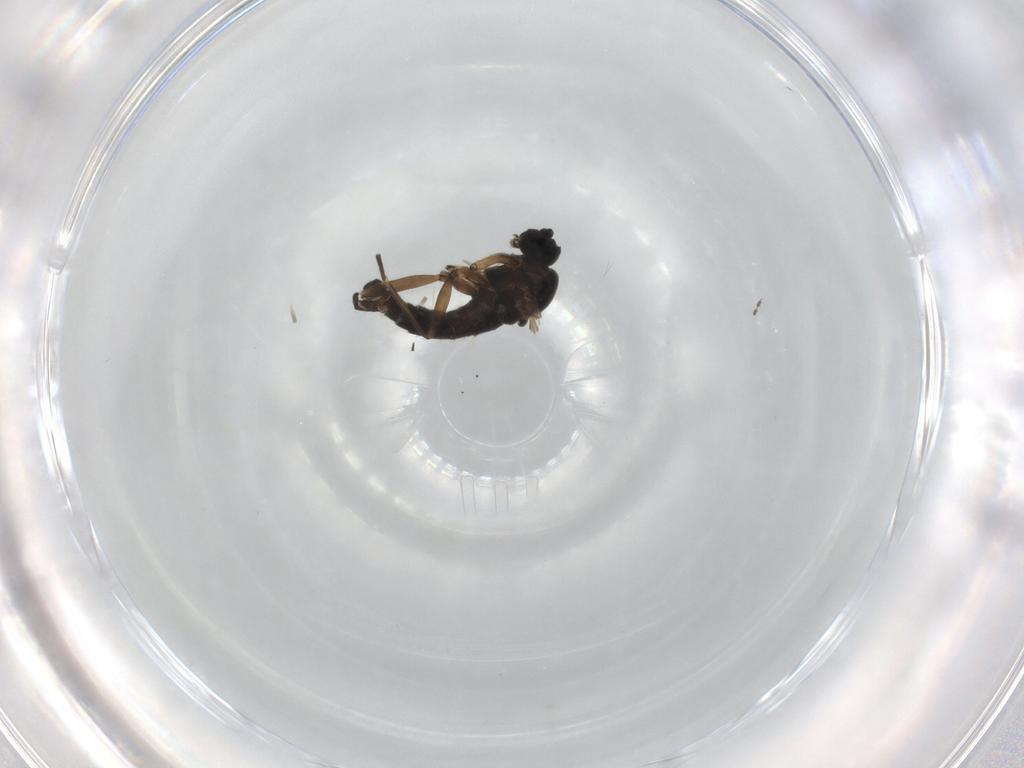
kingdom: Animalia
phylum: Arthropoda
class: Insecta
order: Diptera
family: Sciaridae
